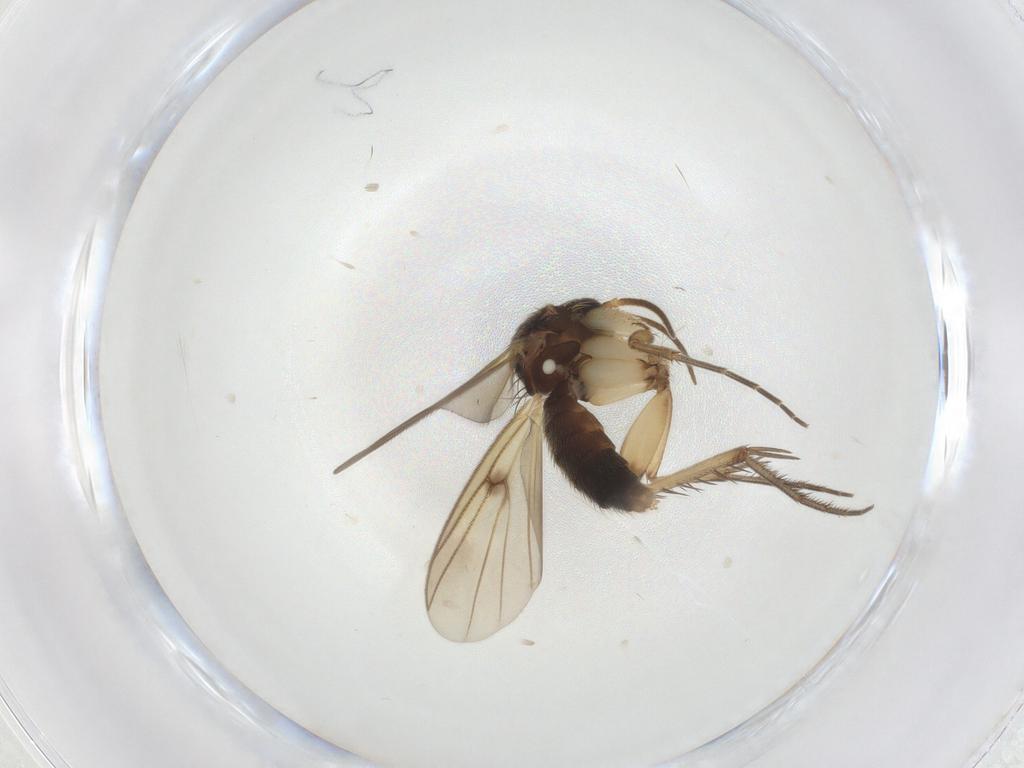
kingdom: Animalia
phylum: Arthropoda
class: Insecta
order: Diptera
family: Mycetophilidae
